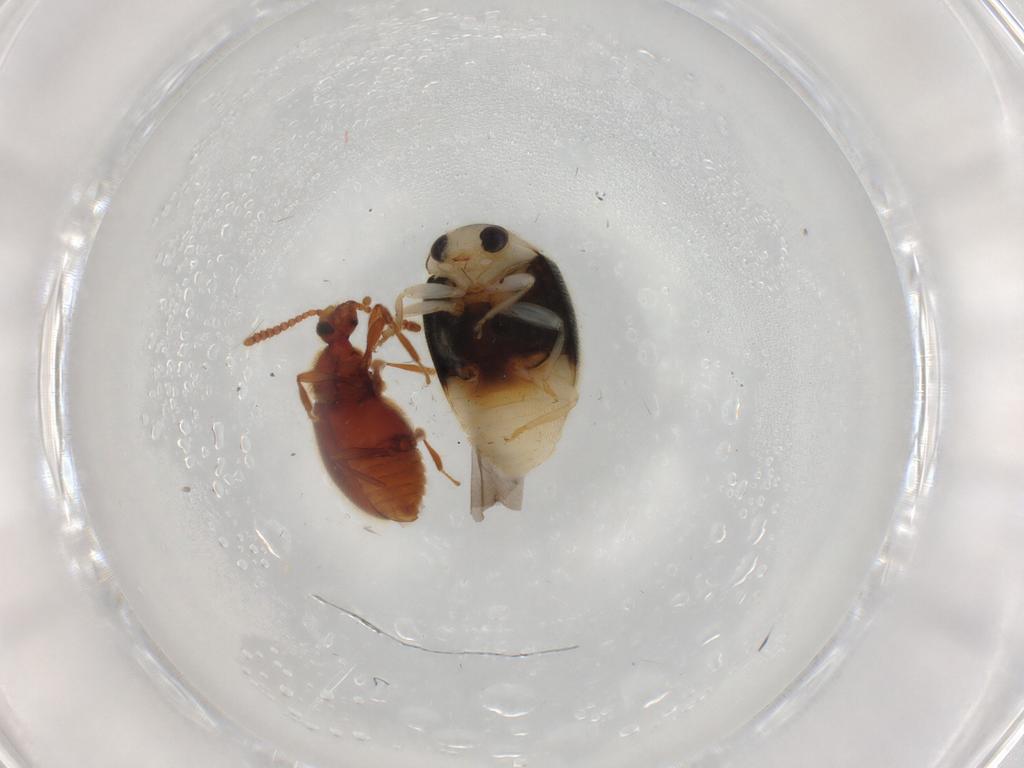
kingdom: Animalia
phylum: Arthropoda
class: Insecta
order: Coleoptera
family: Coccinellidae
